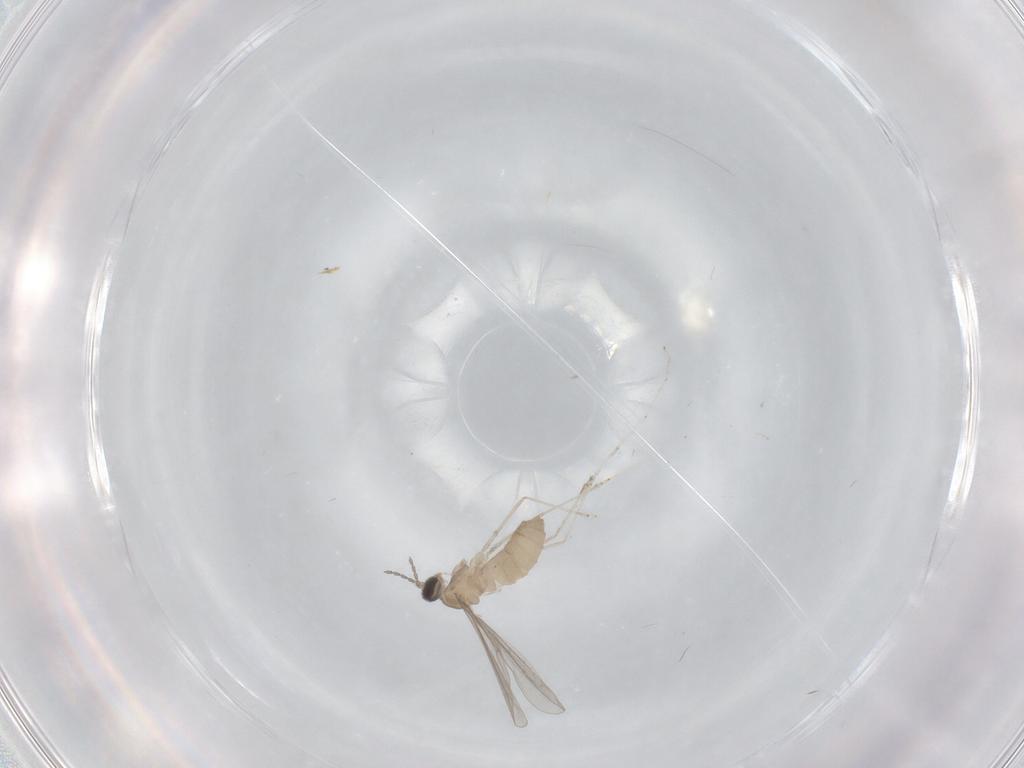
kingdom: Animalia
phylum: Arthropoda
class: Insecta
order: Diptera
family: Cecidomyiidae
